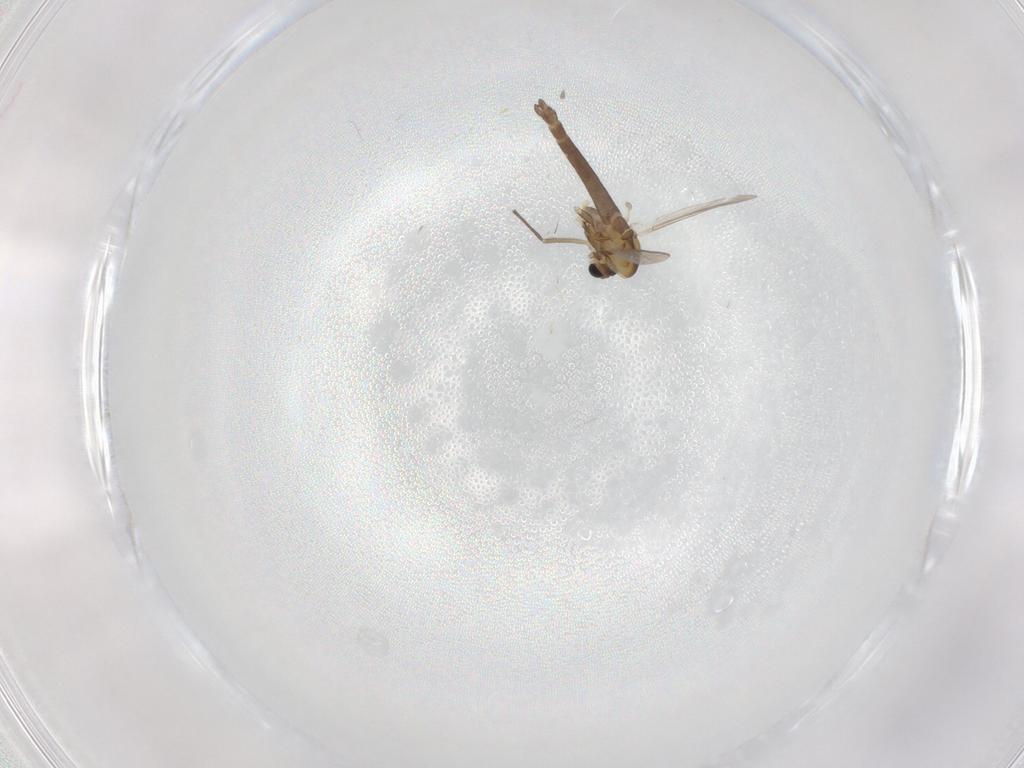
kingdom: Animalia
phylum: Arthropoda
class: Insecta
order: Diptera
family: Chironomidae
